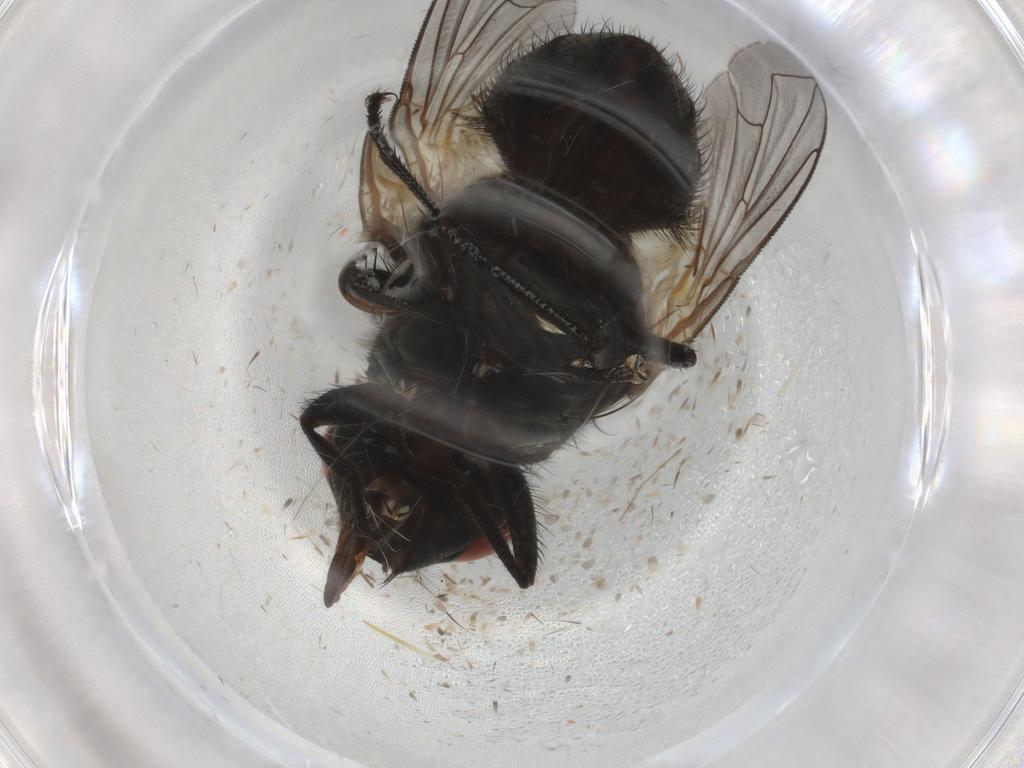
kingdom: Animalia
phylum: Arthropoda
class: Insecta
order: Diptera
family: Muscidae
